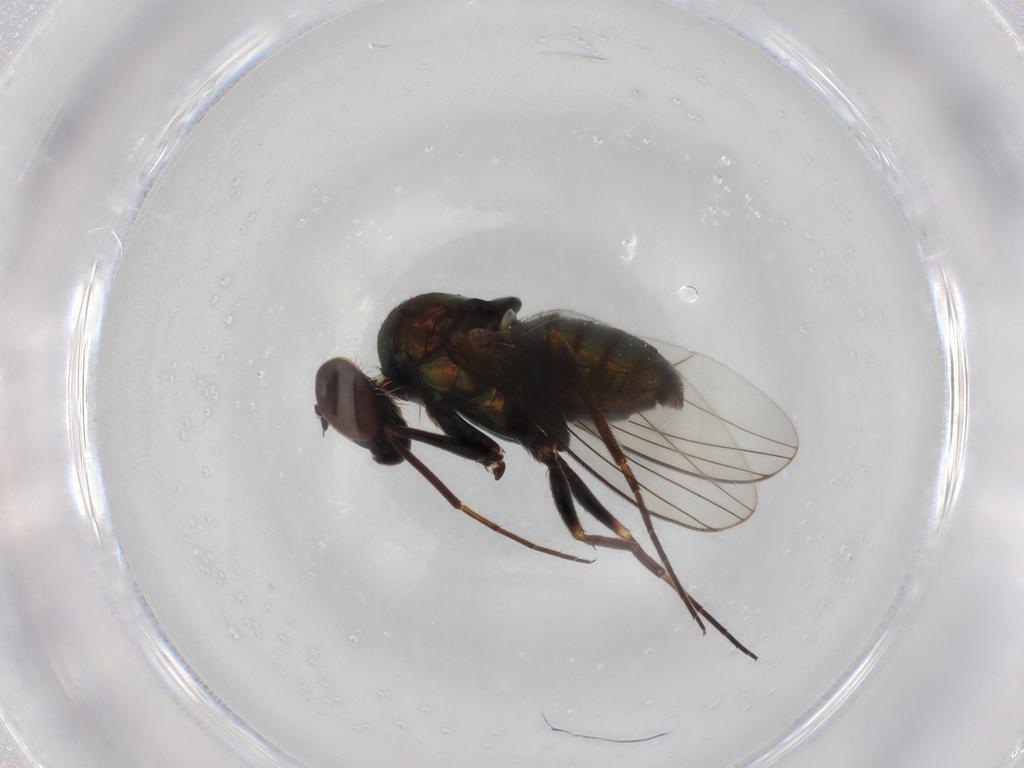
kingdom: Animalia
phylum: Arthropoda
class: Insecta
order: Diptera
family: Dolichopodidae
